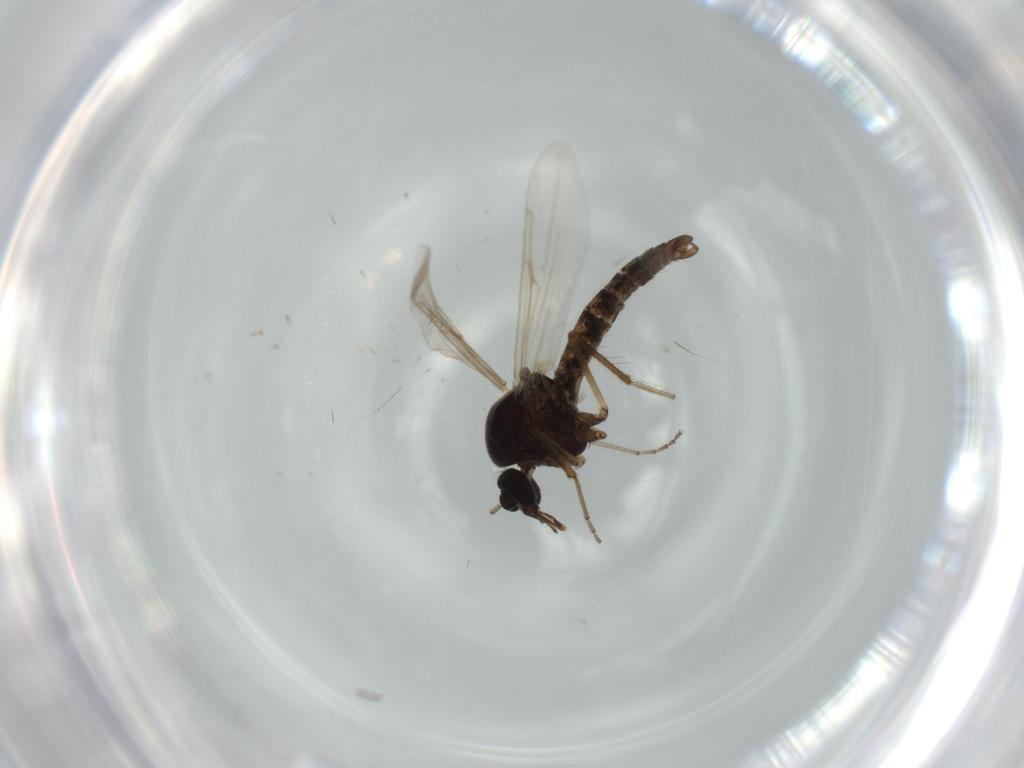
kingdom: Animalia
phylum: Arthropoda
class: Insecta
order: Diptera
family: Ceratopogonidae
